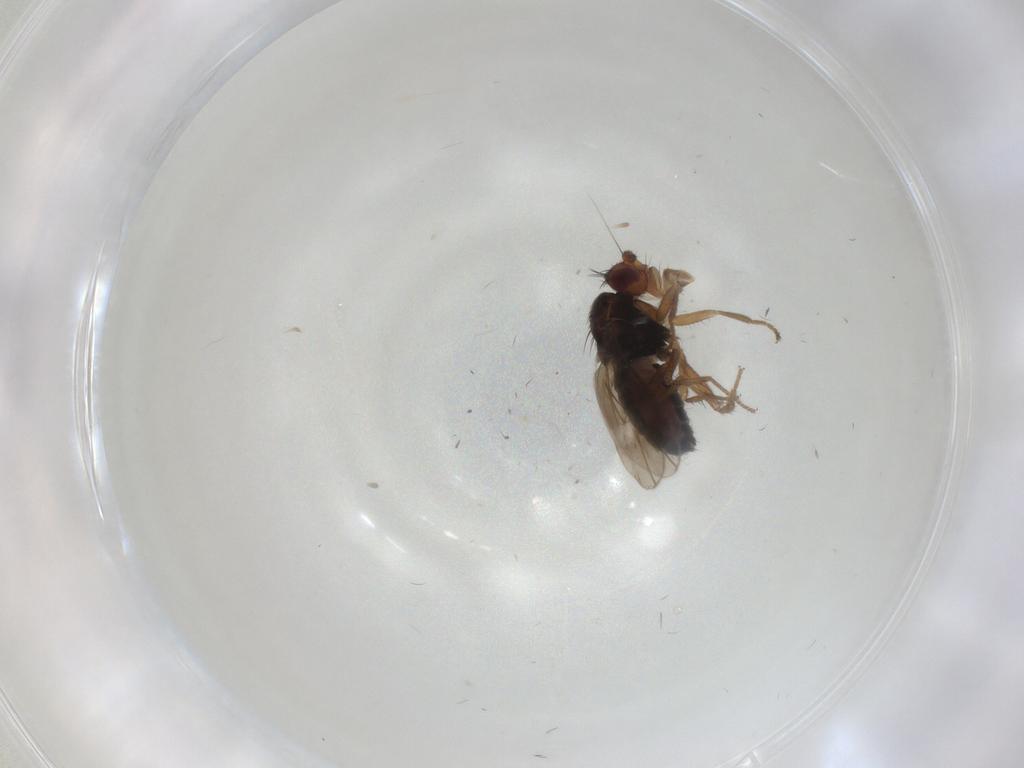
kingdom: Animalia
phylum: Arthropoda
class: Insecta
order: Diptera
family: Sphaeroceridae
